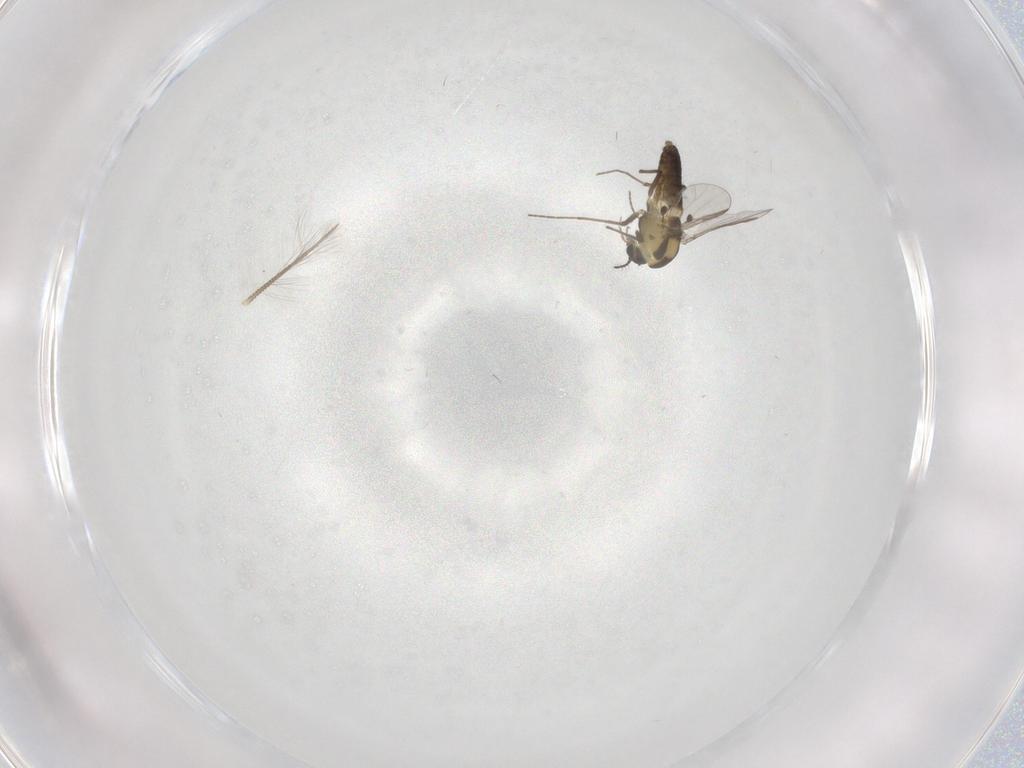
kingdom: Animalia
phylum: Arthropoda
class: Insecta
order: Diptera
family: Chironomidae
